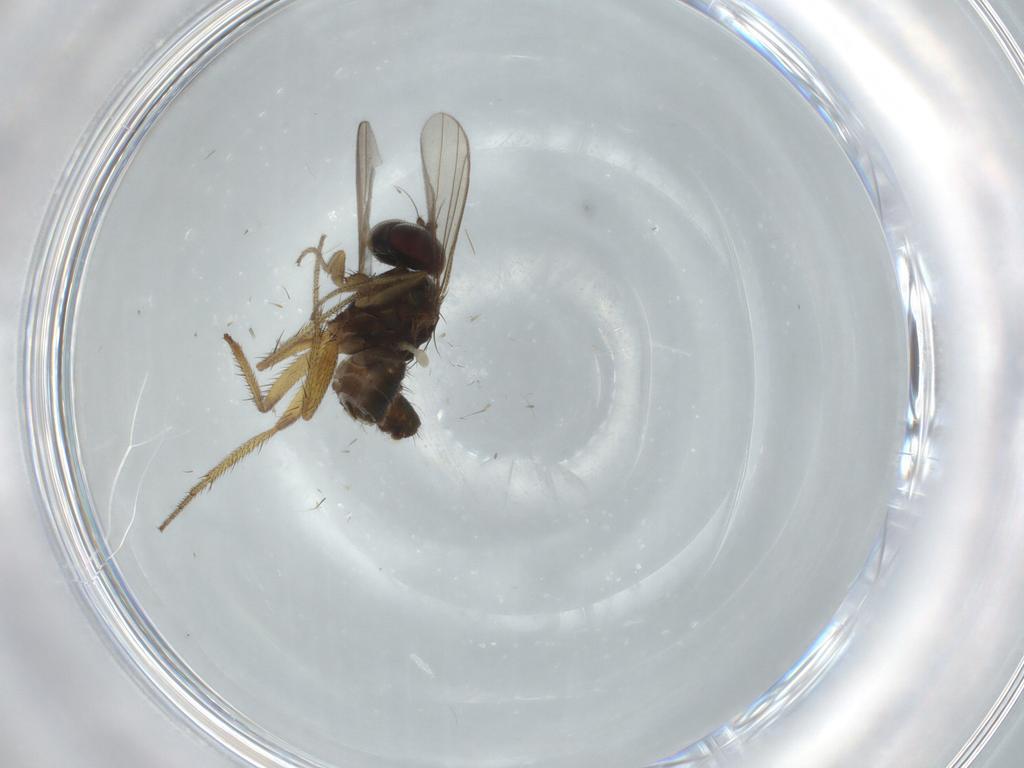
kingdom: Animalia
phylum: Arthropoda
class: Insecta
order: Diptera
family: Dolichopodidae
